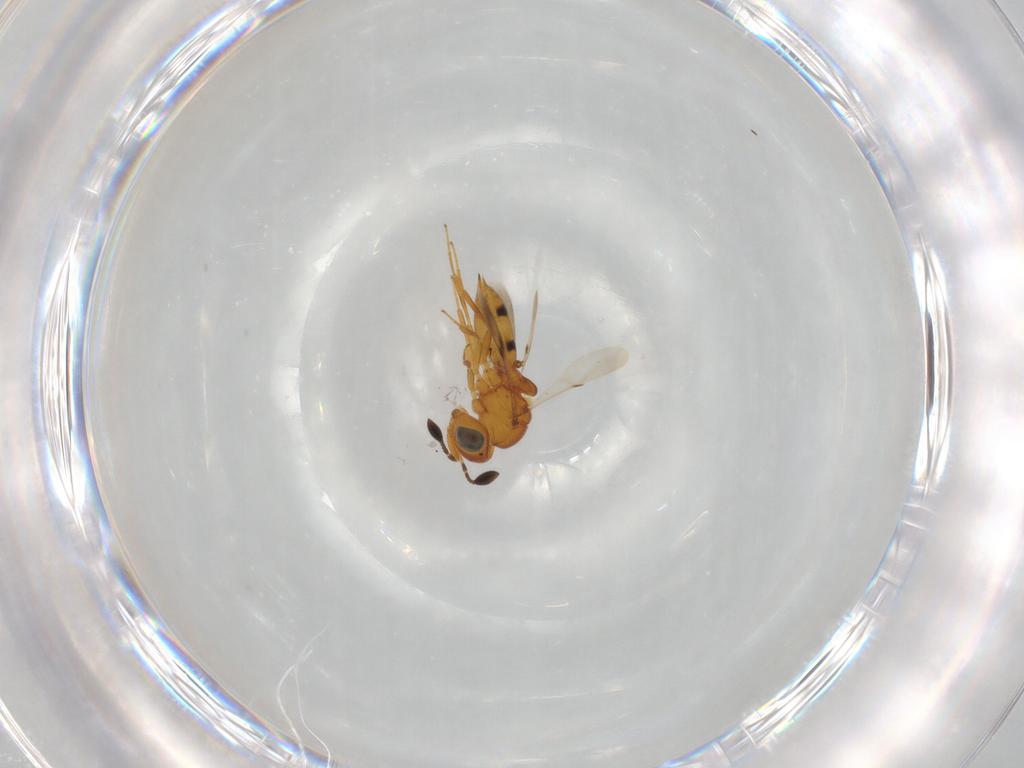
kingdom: Animalia
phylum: Arthropoda
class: Insecta
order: Hymenoptera
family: Scelionidae
